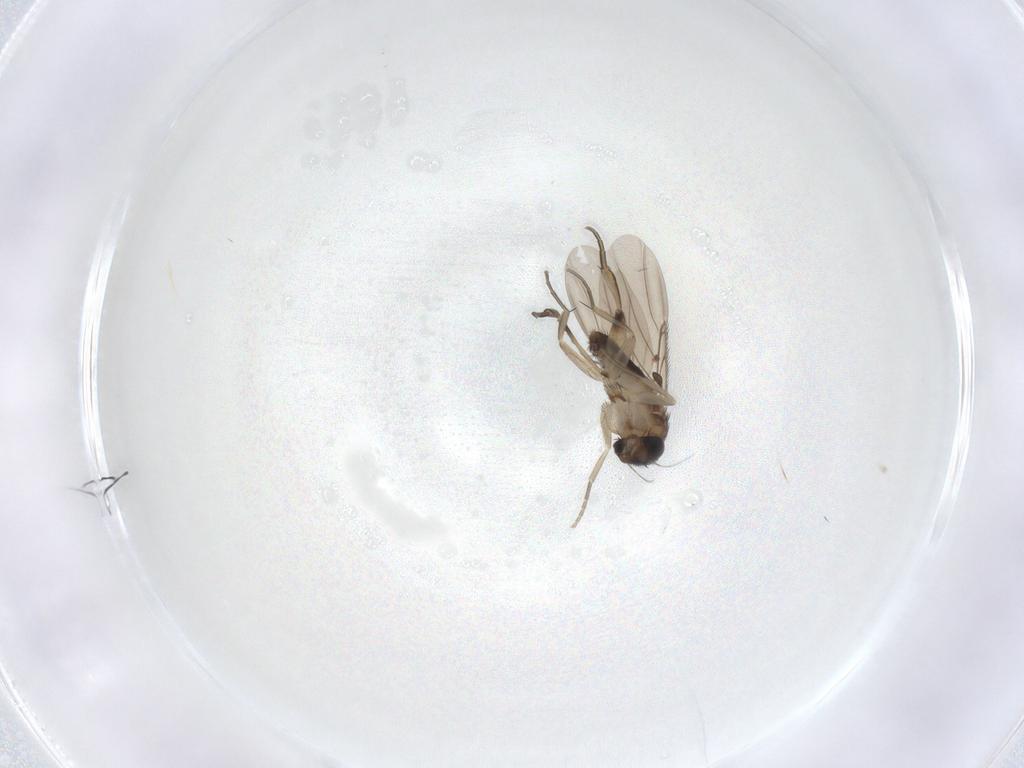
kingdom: Animalia
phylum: Arthropoda
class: Insecta
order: Diptera
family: Phoridae
